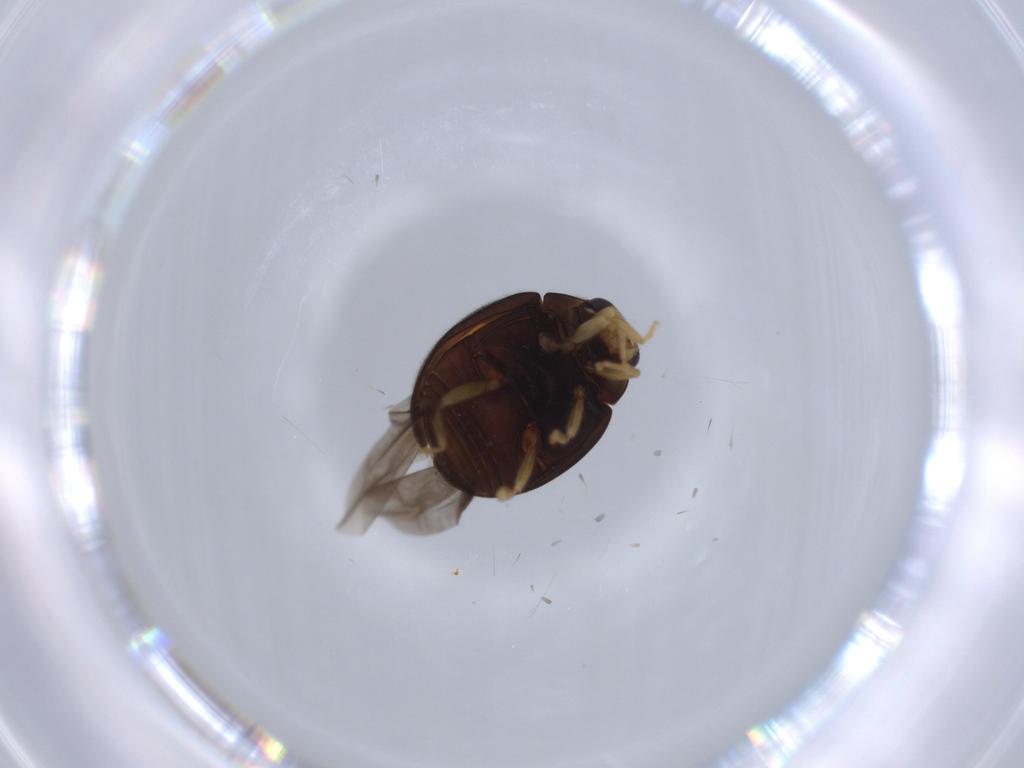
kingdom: Animalia
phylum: Arthropoda
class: Insecta
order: Coleoptera
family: Coccinellidae
